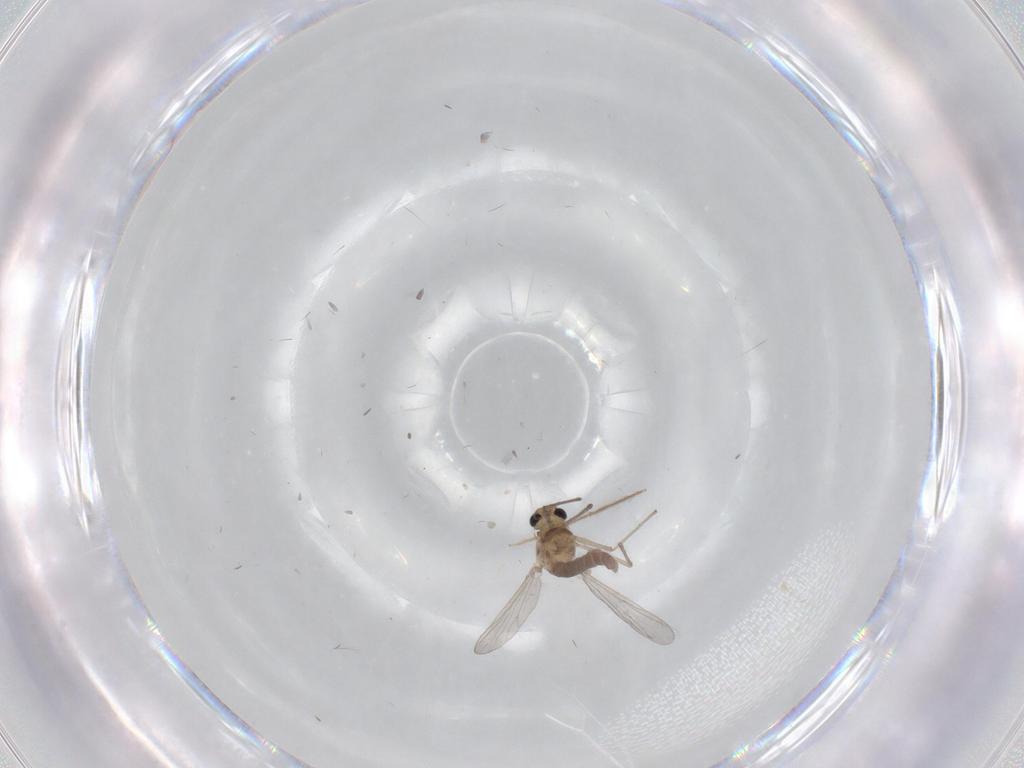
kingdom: Animalia
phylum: Arthropoda
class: Insecta
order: Diptera
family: Chironomidae
